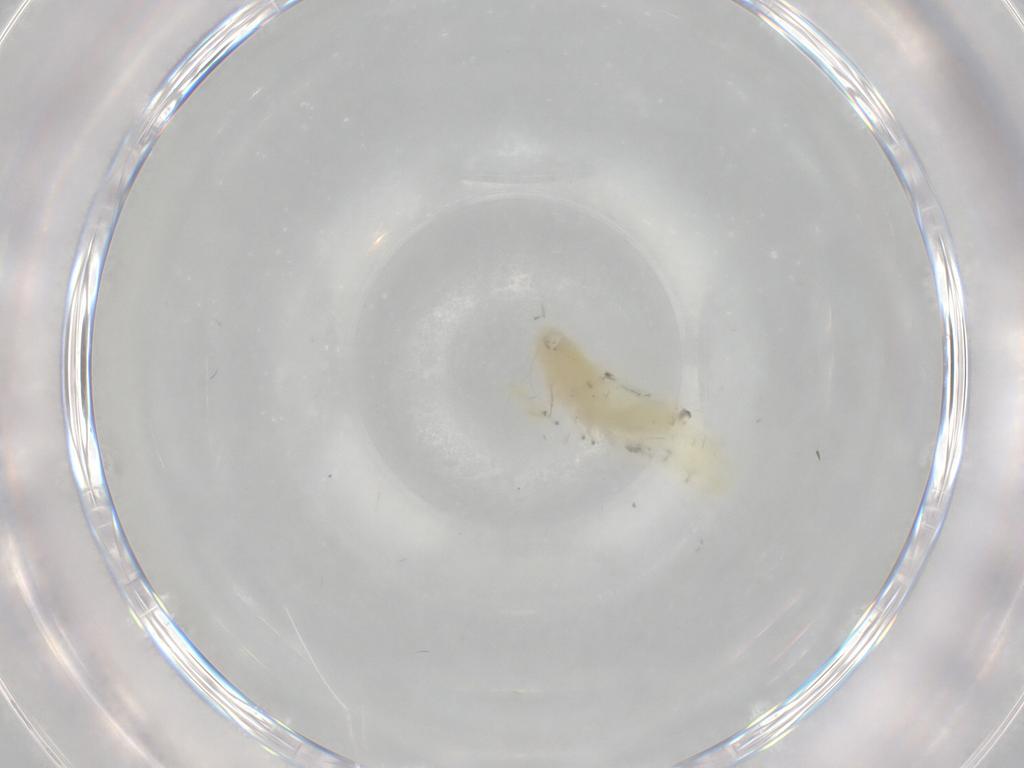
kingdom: Animalia
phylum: Arthropoda
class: Insecta
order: Hemiptera
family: Cicadellidae
